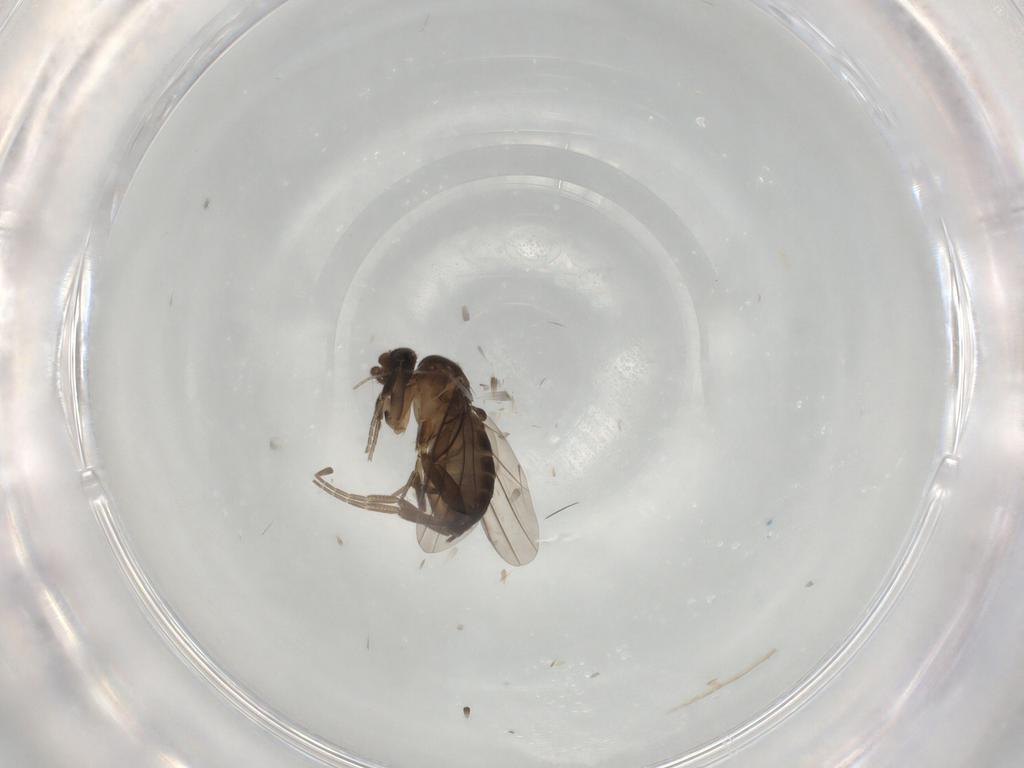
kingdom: Animalia
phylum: Arthropoda
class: Insecta
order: Diptera
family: Phoridae
